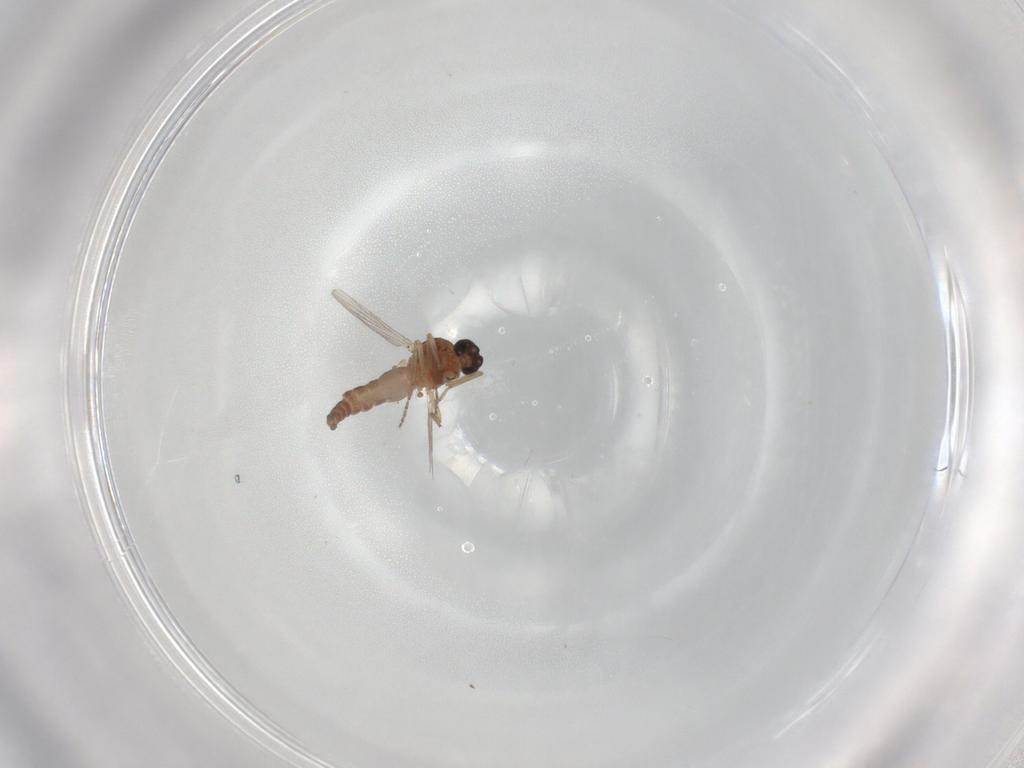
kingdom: Animalia
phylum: Arthropoda
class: Insecta
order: Diptera
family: Ceratopogonidae
